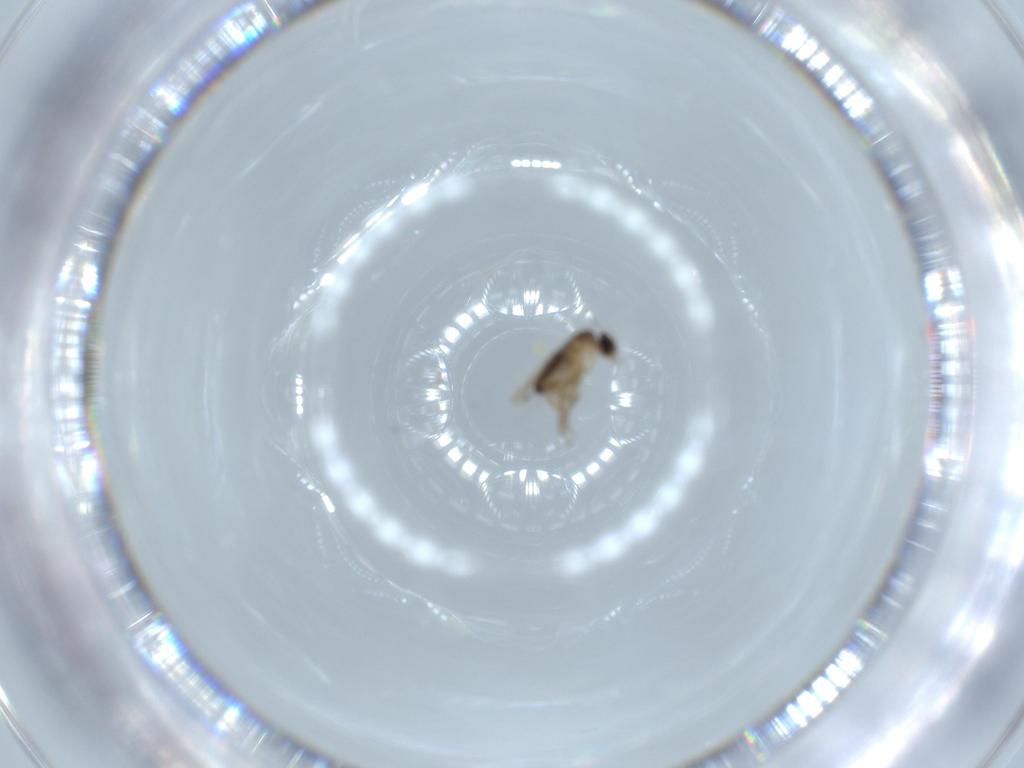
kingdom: Animalia
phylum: Arthropoda
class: Insecta
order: Diptera
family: Phoridae
